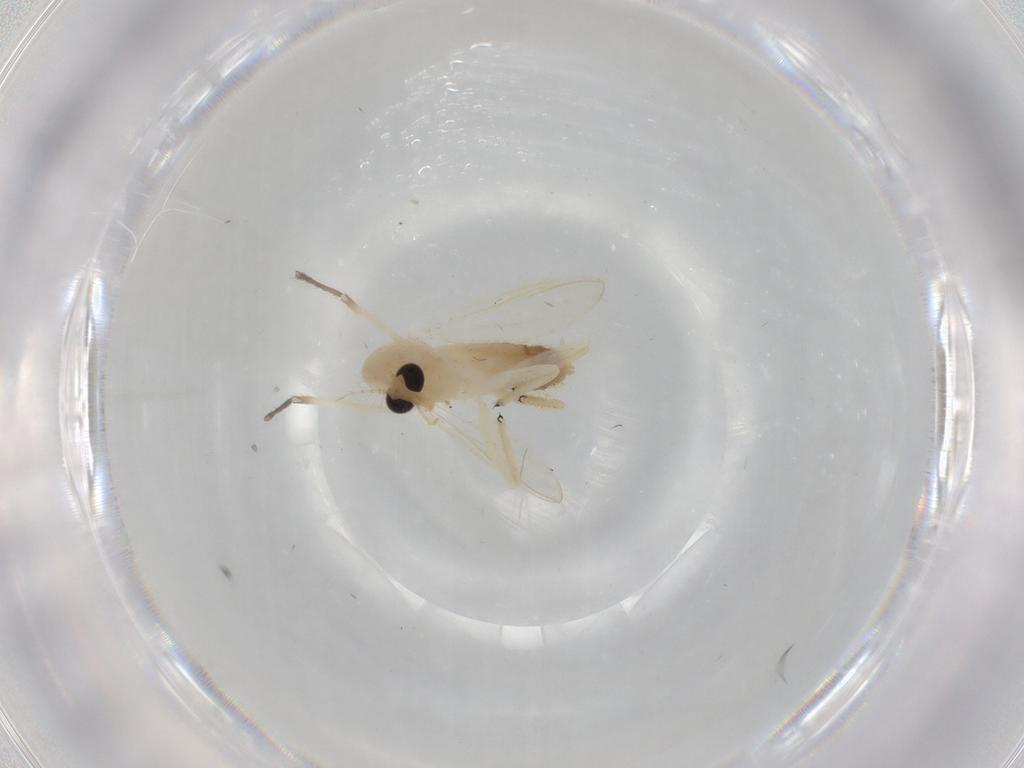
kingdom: Animalia
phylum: Arthropoda
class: Insecta
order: Diptera
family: Chironomidae
